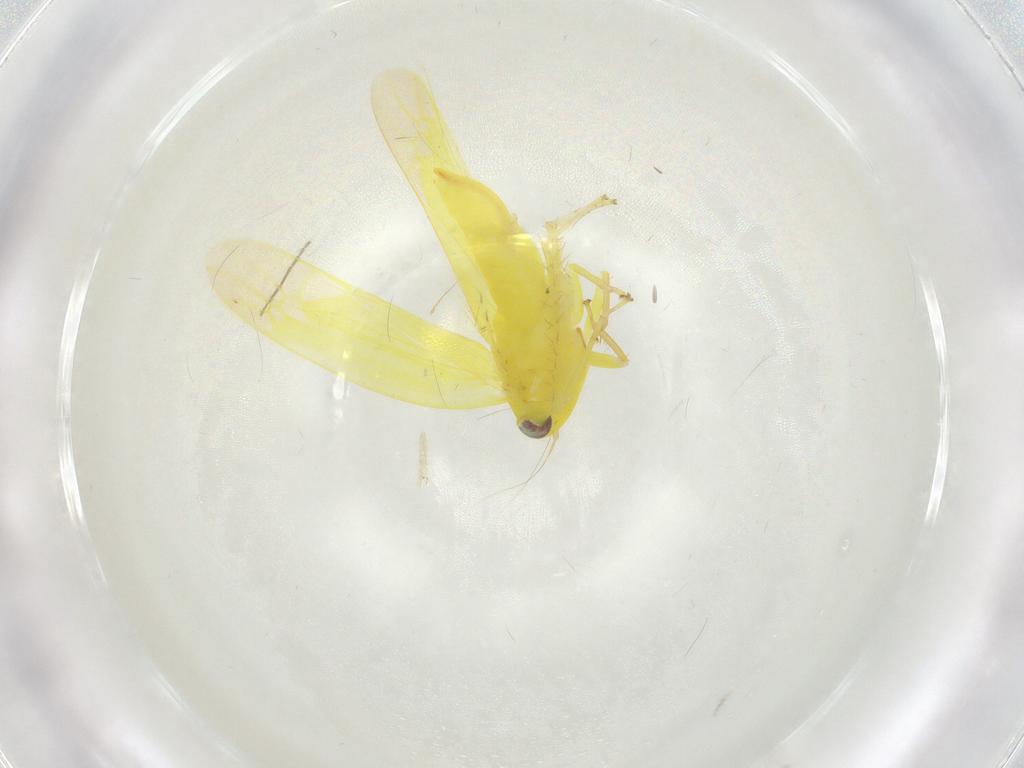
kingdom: Animalia
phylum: Arthropoda
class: Insecta
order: Hemiptera
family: Cicadellidae
